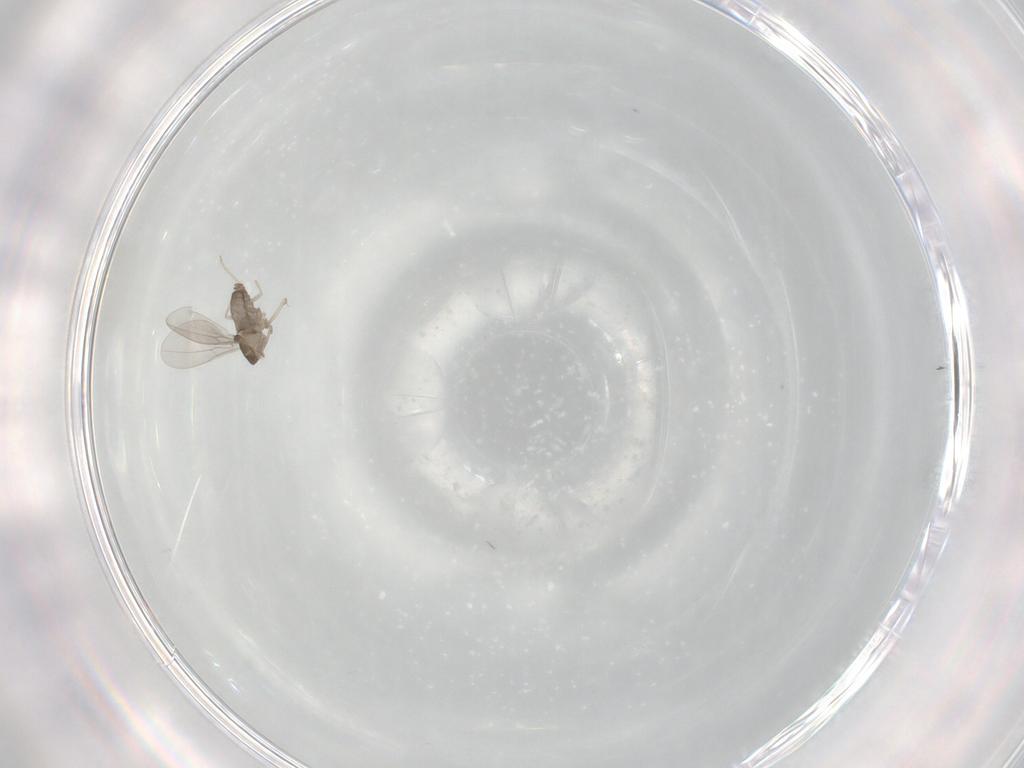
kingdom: Animalia
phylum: Arthropoda
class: Insecta
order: Diptera
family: Cecidomyiidae
